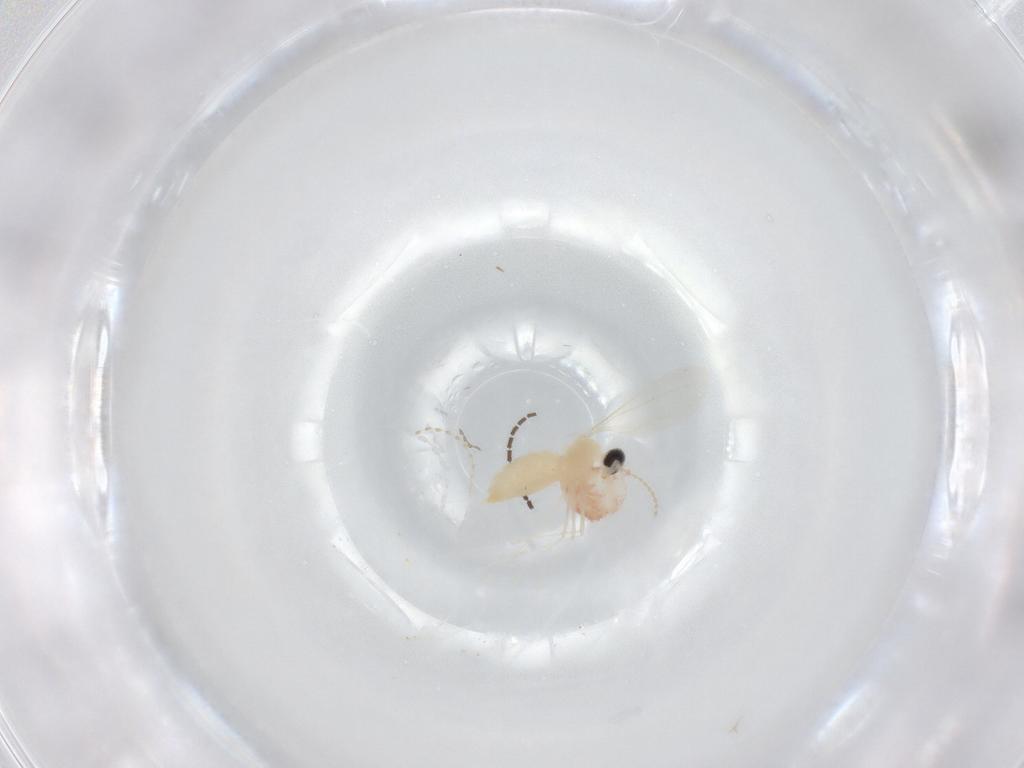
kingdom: Animalia
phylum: Arthropoda
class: Insecta
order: Diptera
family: Cecidomyiidae
